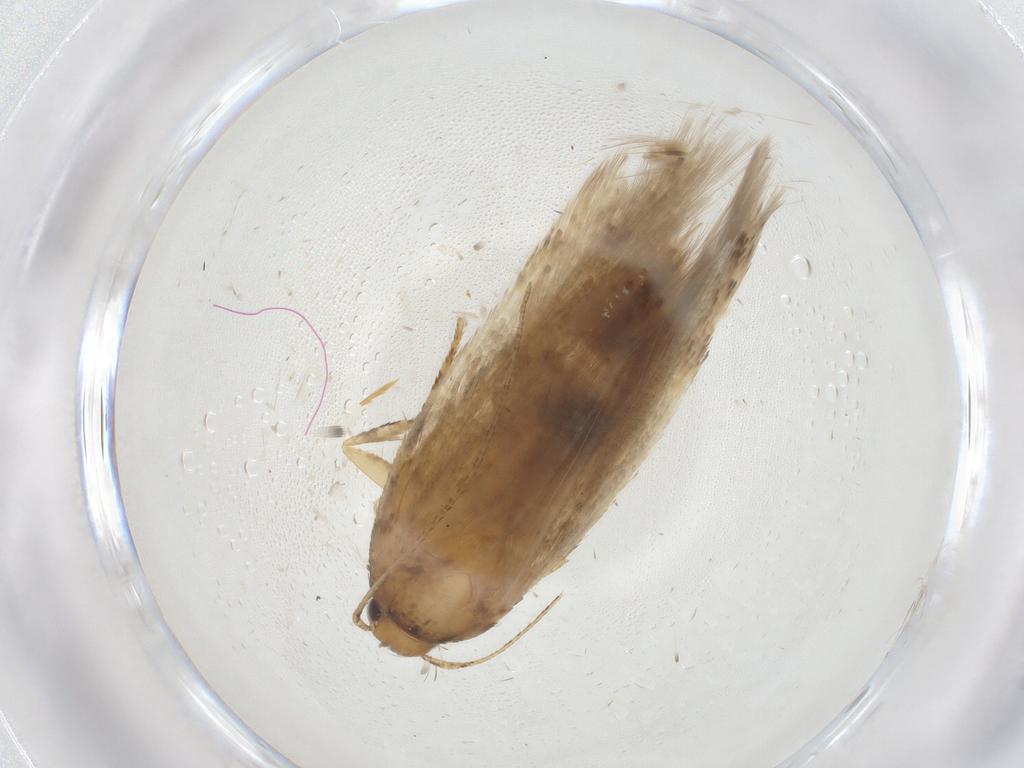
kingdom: Animalia
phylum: Arthropoda
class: Insecta
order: Lepidoptera
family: Gelechiidae
